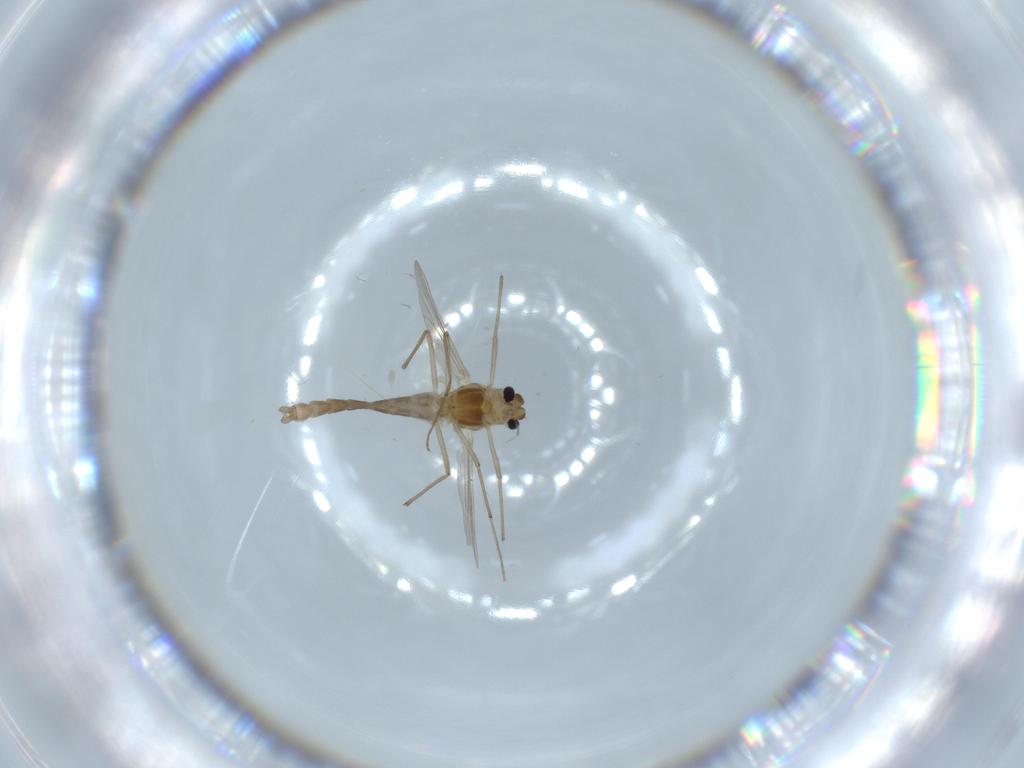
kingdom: Animalia
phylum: Arthropoda
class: Insecta
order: Diptera
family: Chironomidae
